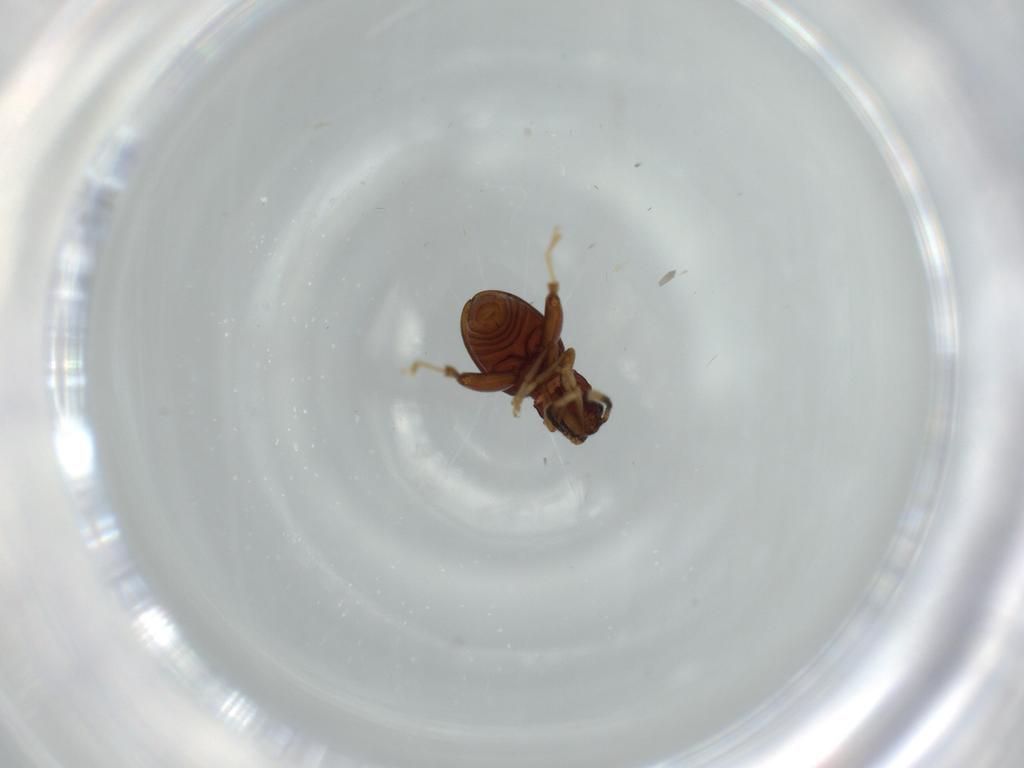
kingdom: Animalia
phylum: Arthropoda
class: Insecta
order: Coleoptera
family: Chrysomelidae
